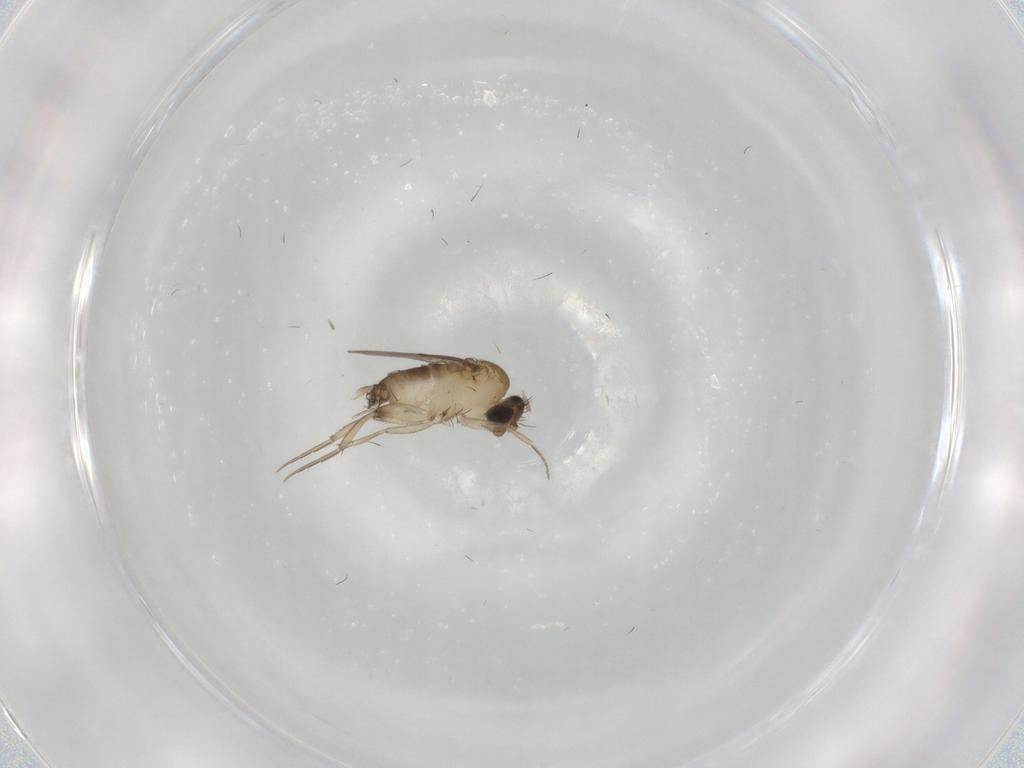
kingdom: Animalia
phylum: Arthropoda
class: Insecta
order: Diptera
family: Phoridae
